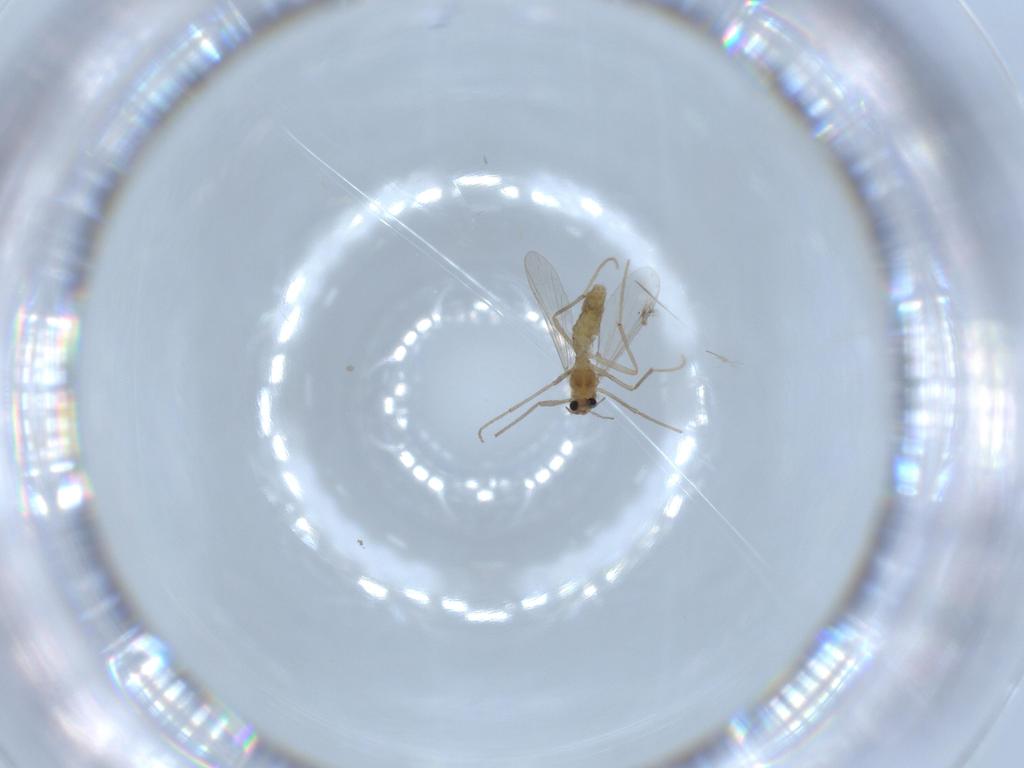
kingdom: Animalia
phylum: Arthropoda
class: Insecta
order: Diptera
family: Chironomidae
